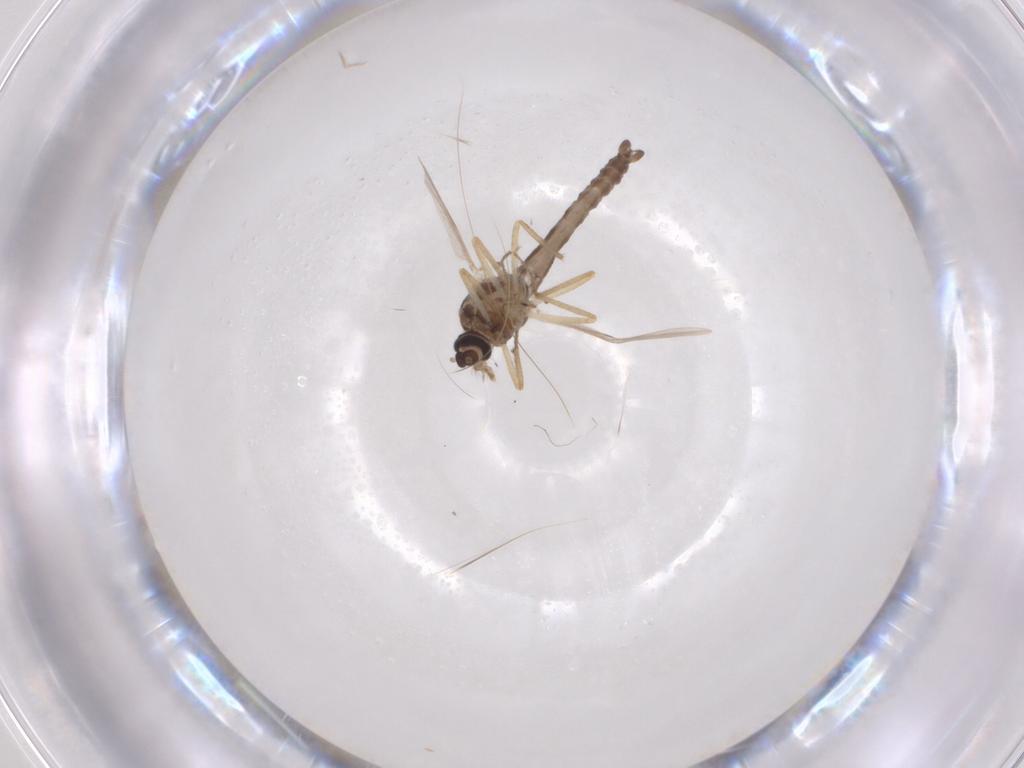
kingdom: Animalia
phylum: Arthropoda
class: Insecta
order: Diptera
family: Ceratopogonidae
